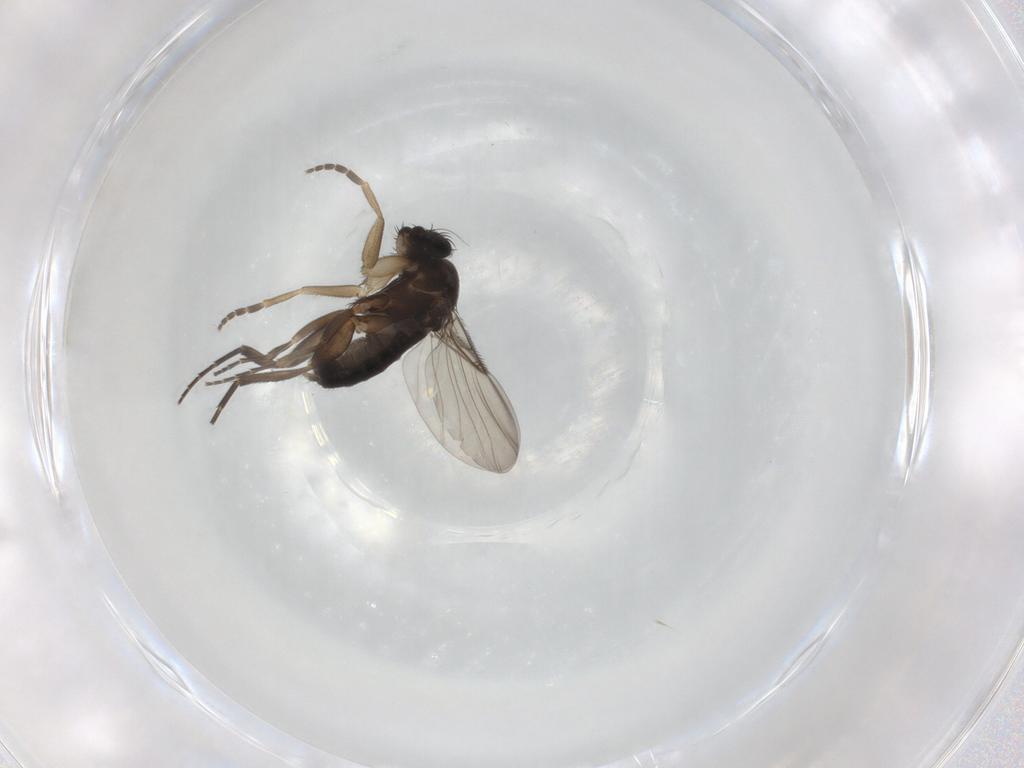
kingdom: Animalia
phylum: Arthropoda
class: Insecta
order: Diptera
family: Phoridae
